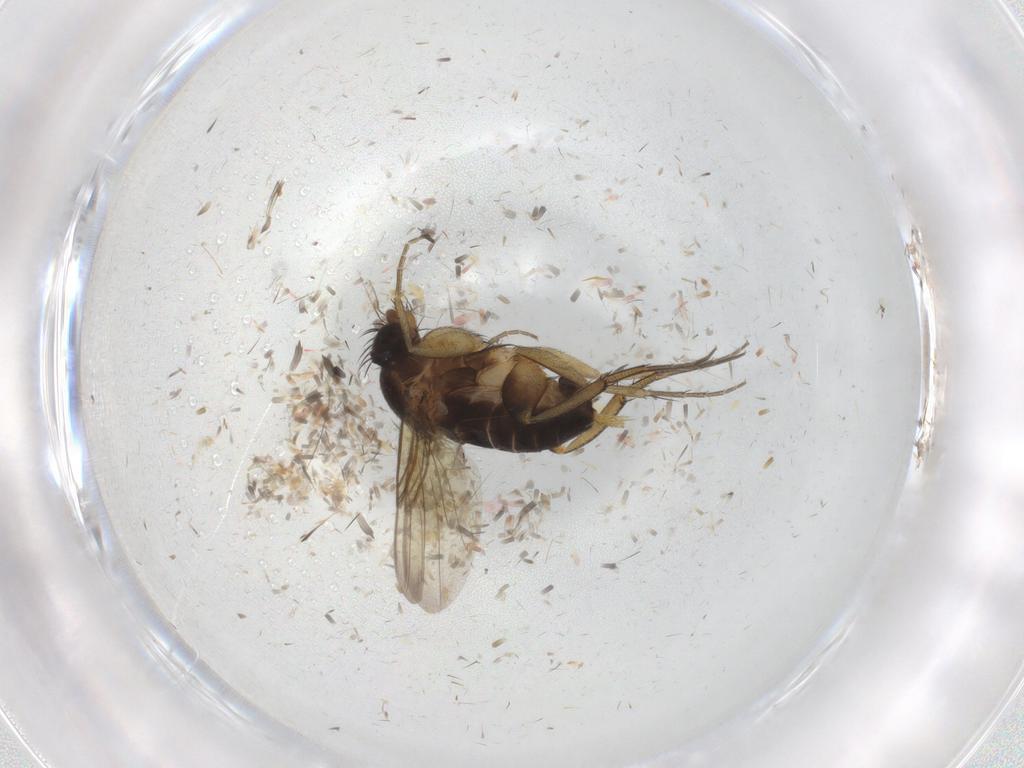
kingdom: Animalia
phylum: Arthropoda
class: Insecta
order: Diptera
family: Phoridae
